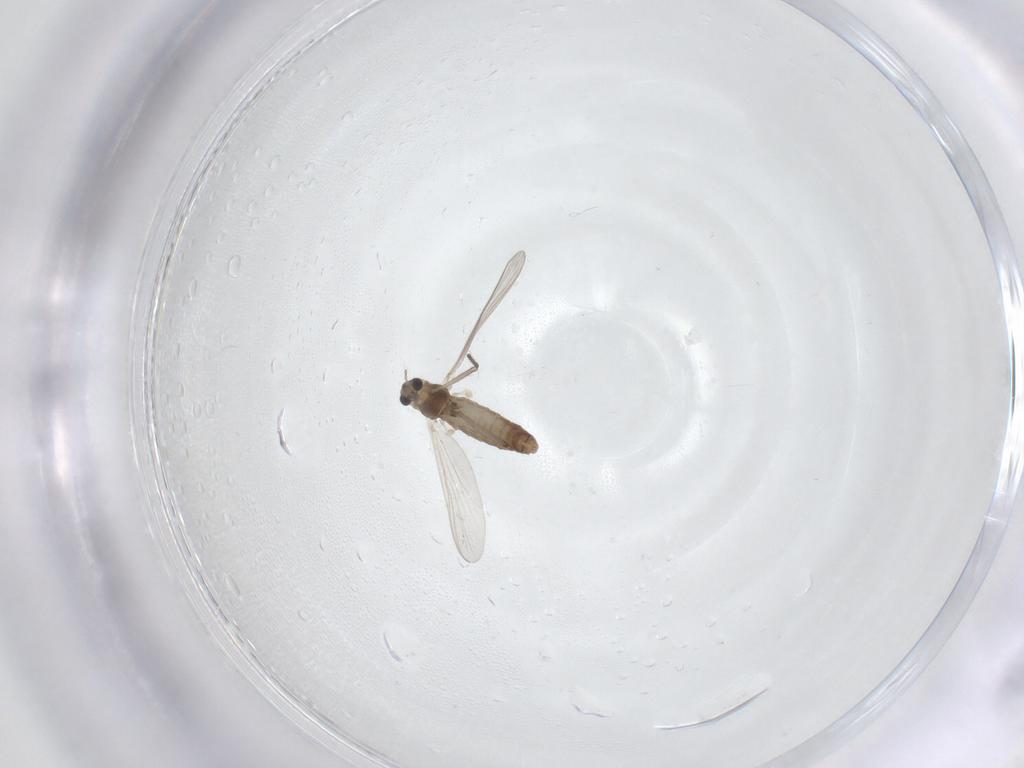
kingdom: Animalia
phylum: Arthropoda
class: Insecta
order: Diptera
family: Chironomidae
